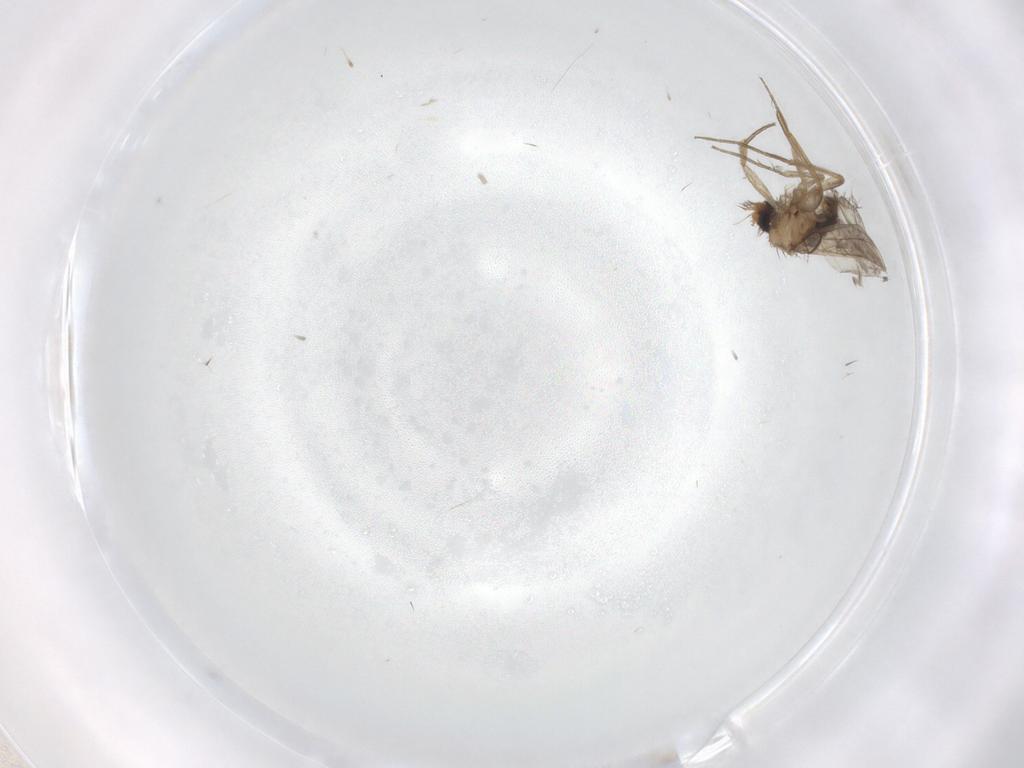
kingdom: Animalia
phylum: Arthropoda
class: Insecta
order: Diptera
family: Phoridae
